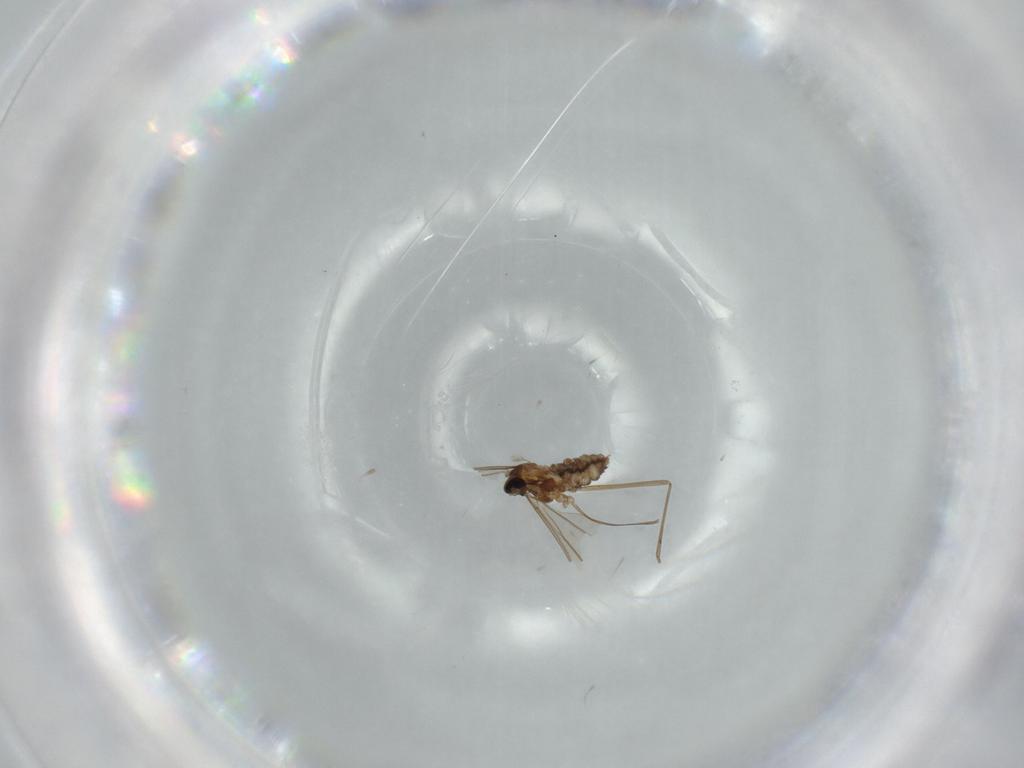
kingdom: Animalia
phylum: Arthropoda
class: Insecta
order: Diptera
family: Cecidomyiidae
